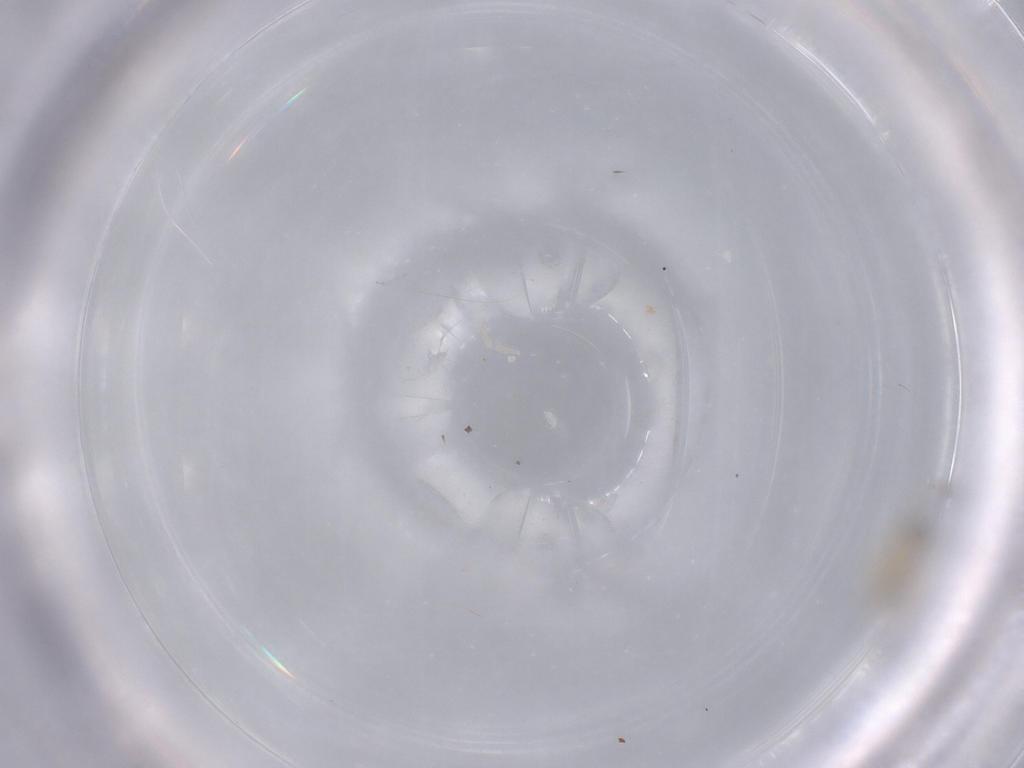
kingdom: Animalia
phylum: Arthropoda
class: Insecta
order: Diptera
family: Cecidomyiidae
